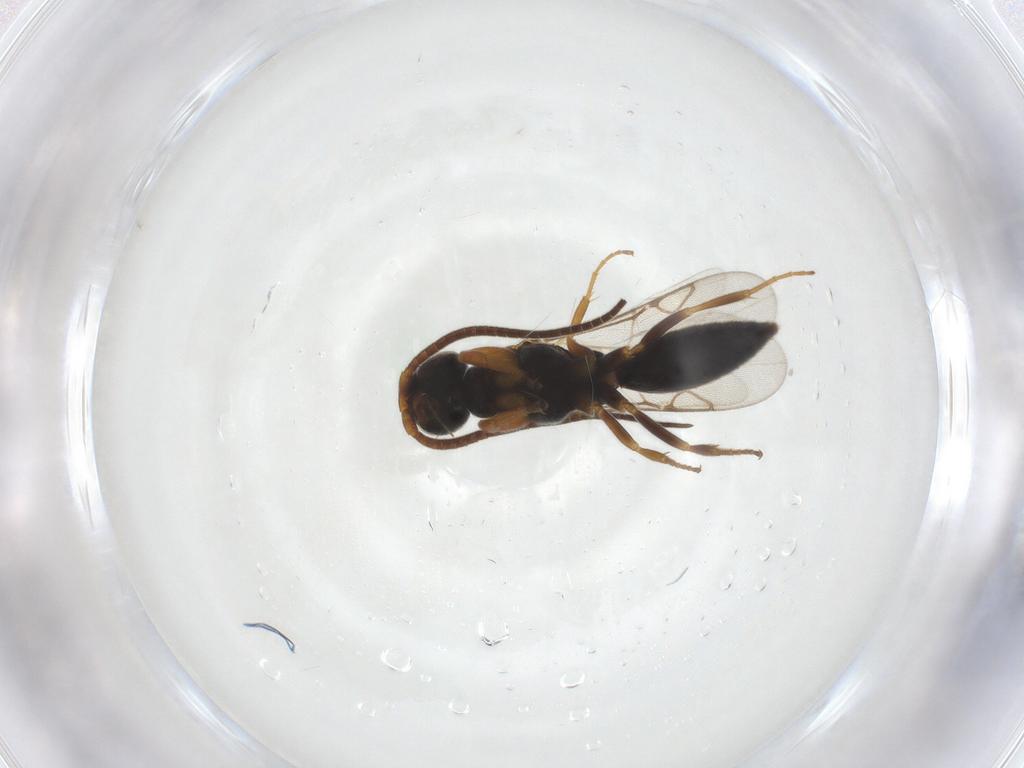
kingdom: Animalia
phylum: Arthropoda
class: Insecta
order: Hymenoptera
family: Sclerogibbidae
